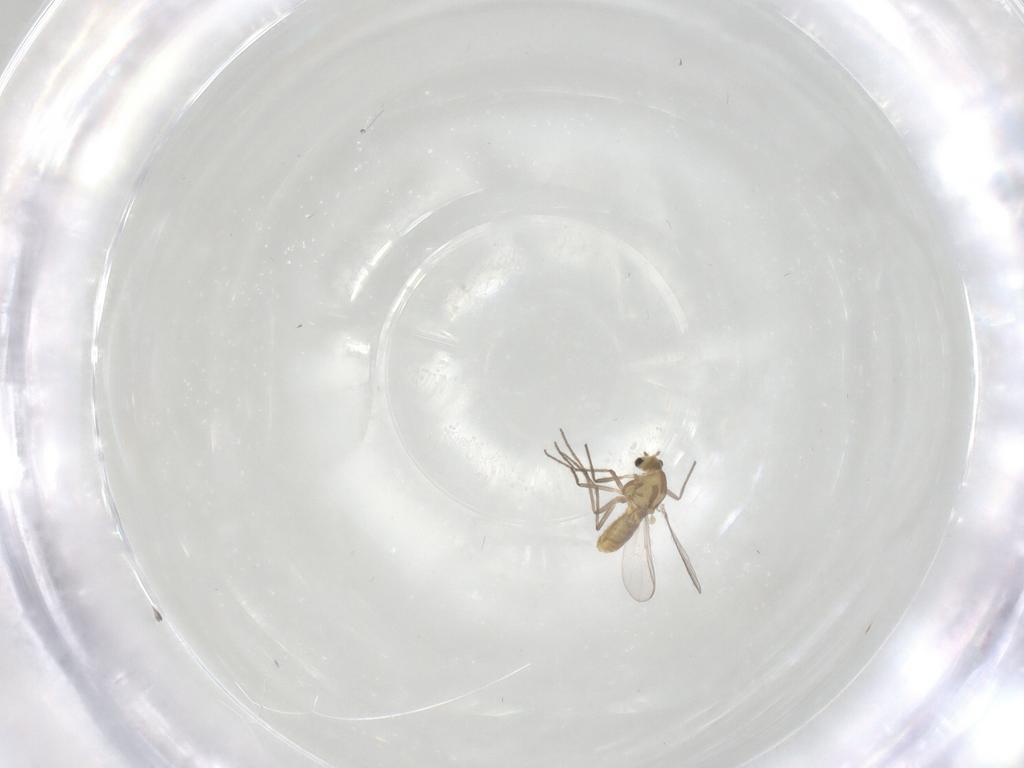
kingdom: Animalia
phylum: Arthropoda
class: Insecta
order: Diptera
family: Chironomidae
